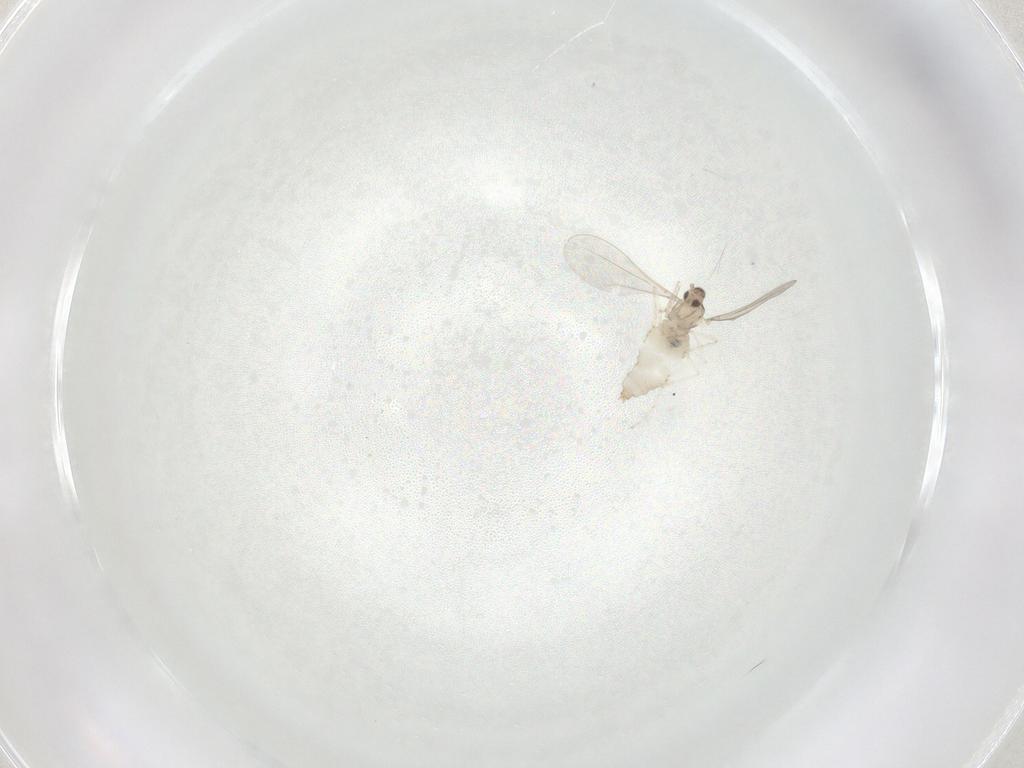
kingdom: Animalia
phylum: Arthropoda
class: Insecta
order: Diptera
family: Cecidomyiidae
